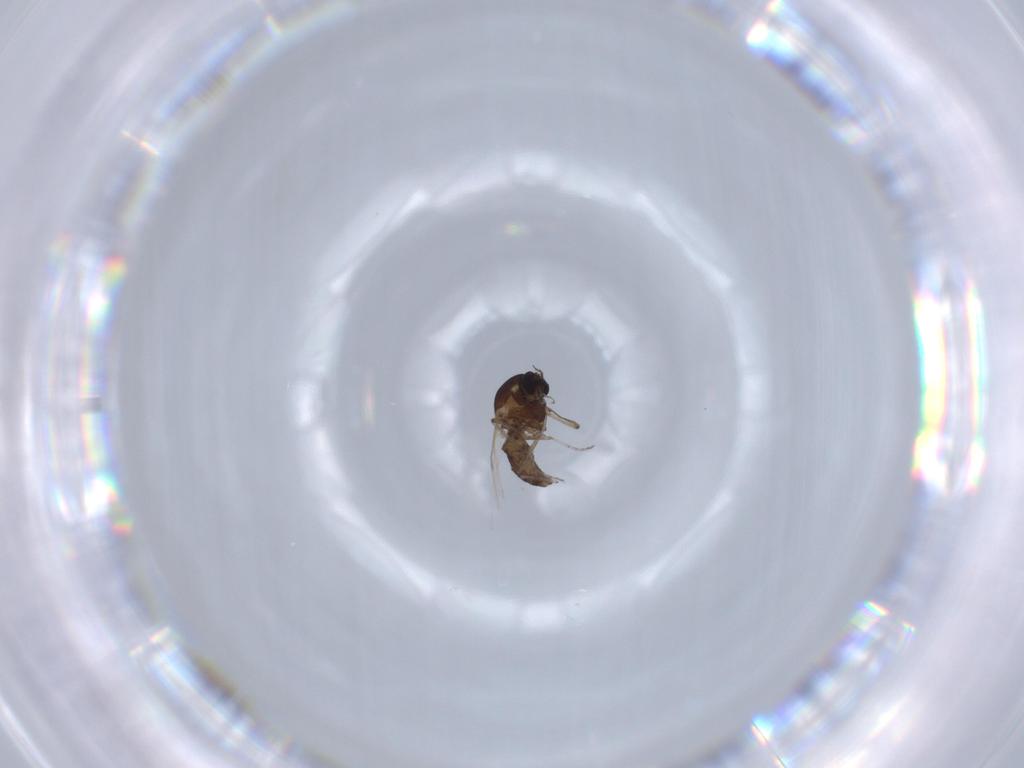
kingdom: Animalia
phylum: Arthropoda
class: Insecta
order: Diptera
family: Ceratopogonidae
